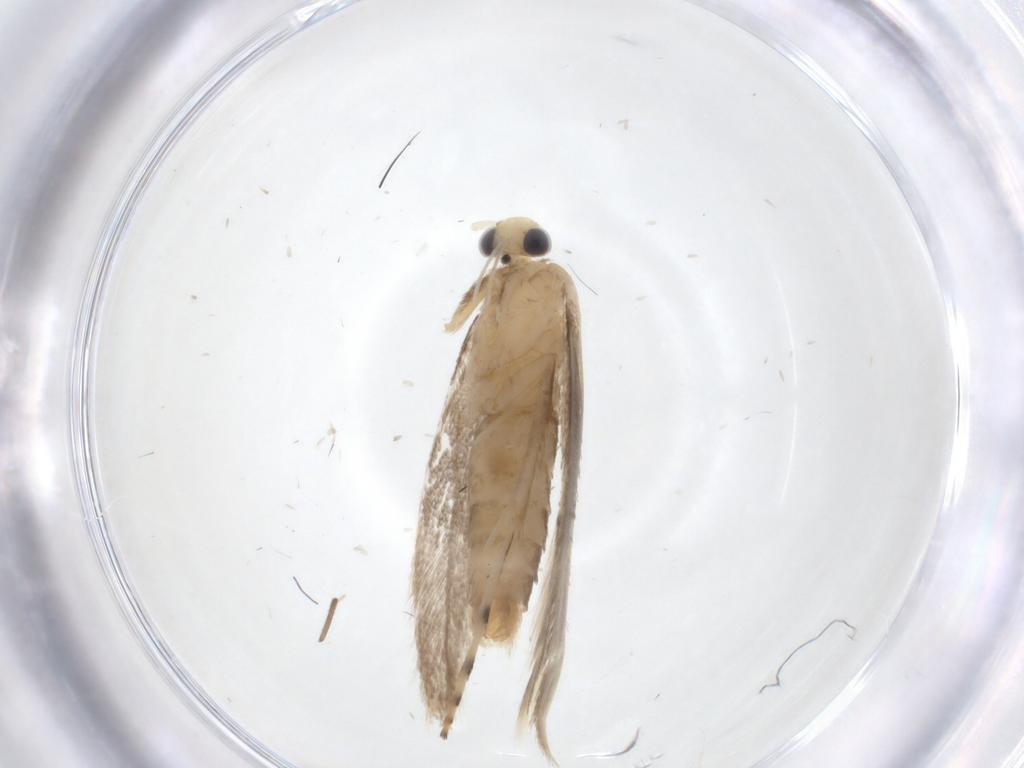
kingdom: Animalia
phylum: Arthropoda
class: Insecta
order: Lepidoptera
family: Gracillariidae
